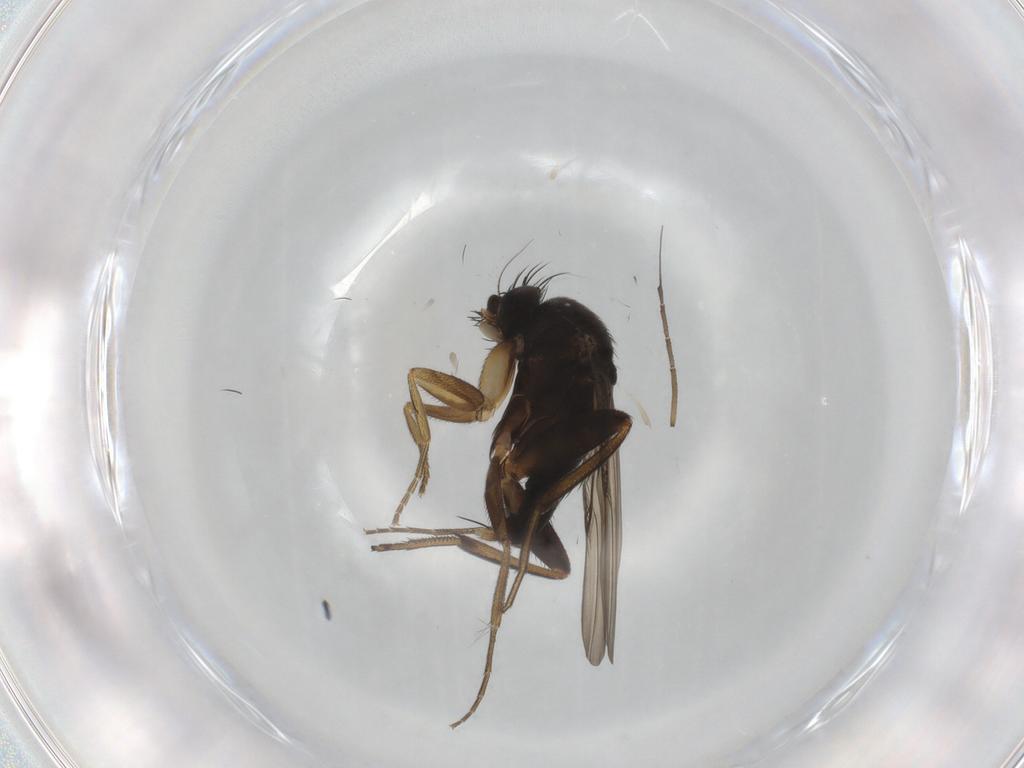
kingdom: Animalia
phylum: Arthropoda
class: Insecta
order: Diptera
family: Phoridae
